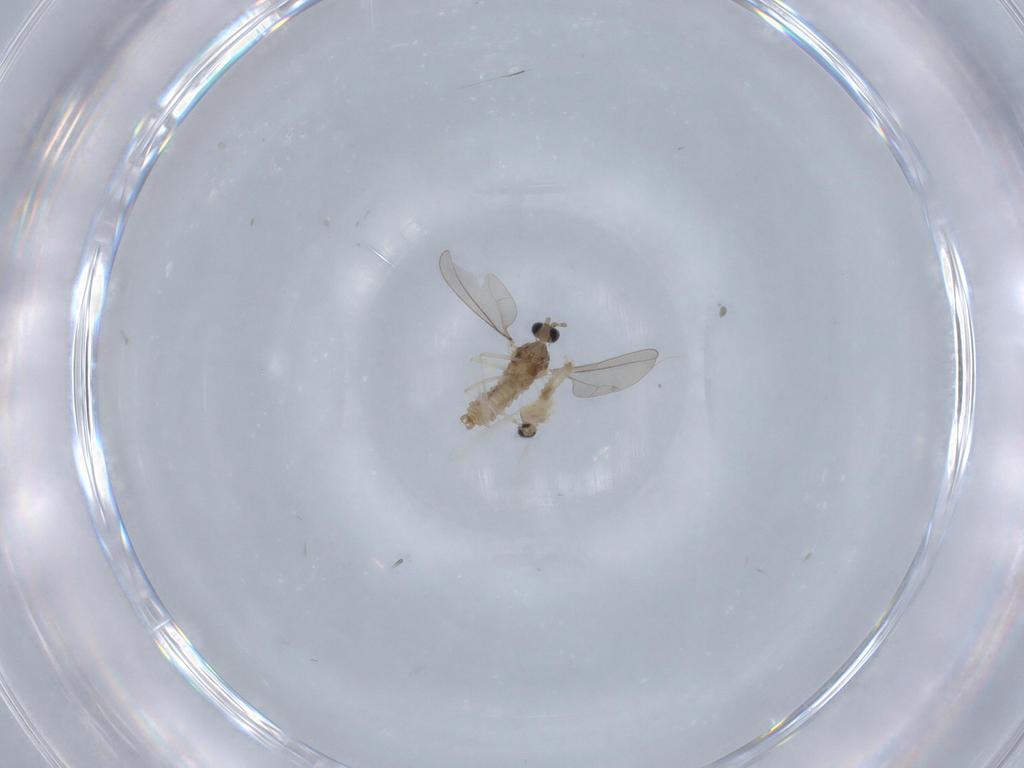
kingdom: Animalia
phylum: Arthropoda
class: Insecta
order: Diptera
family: Cecidomyiidae
